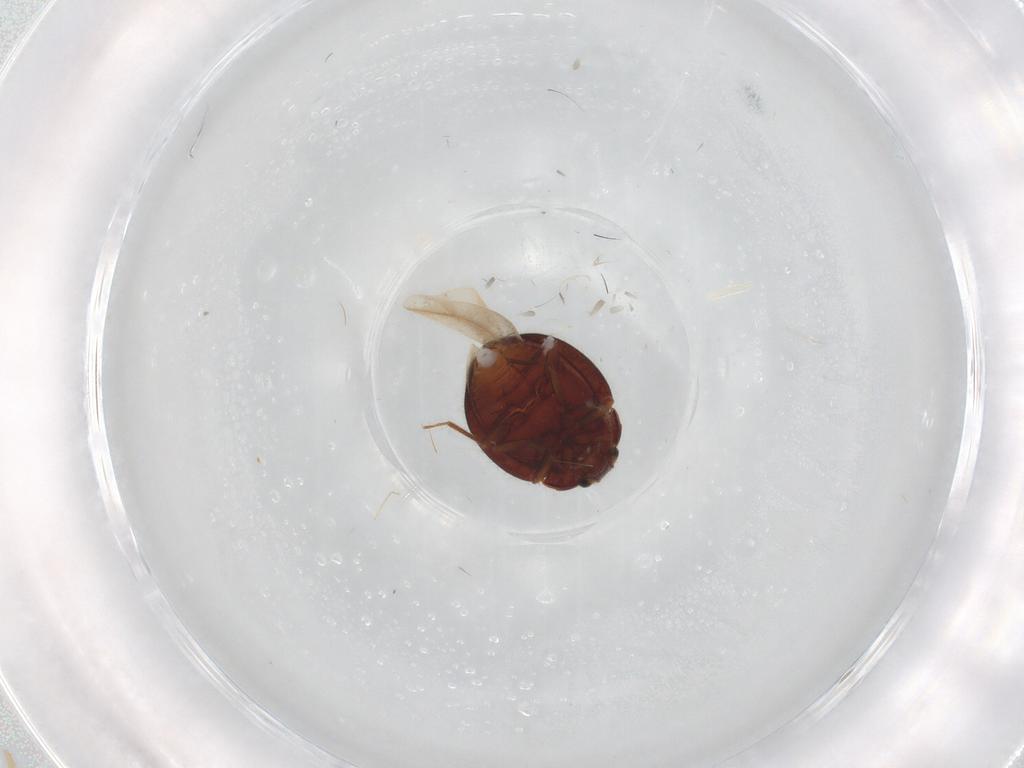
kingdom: Animalia
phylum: Arthropoda
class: Insecta
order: Coleoptera
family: Anamorphidae
